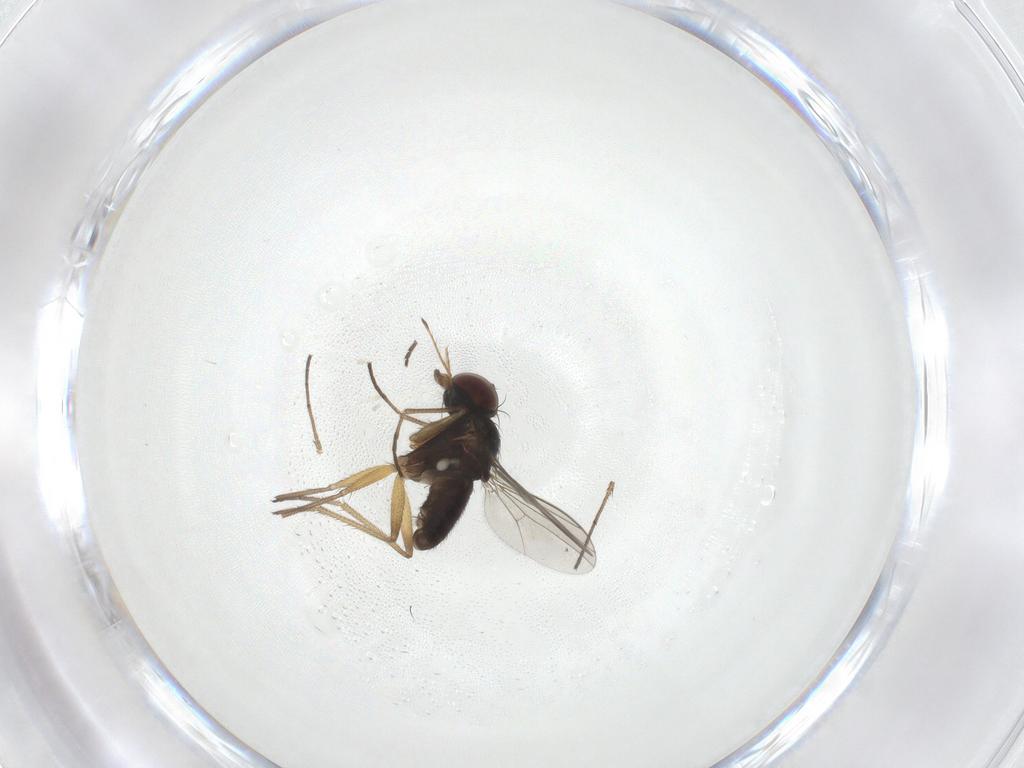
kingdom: Animalia
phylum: Arthropoda
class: Insecta
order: Diptera
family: Dolichopodidae
